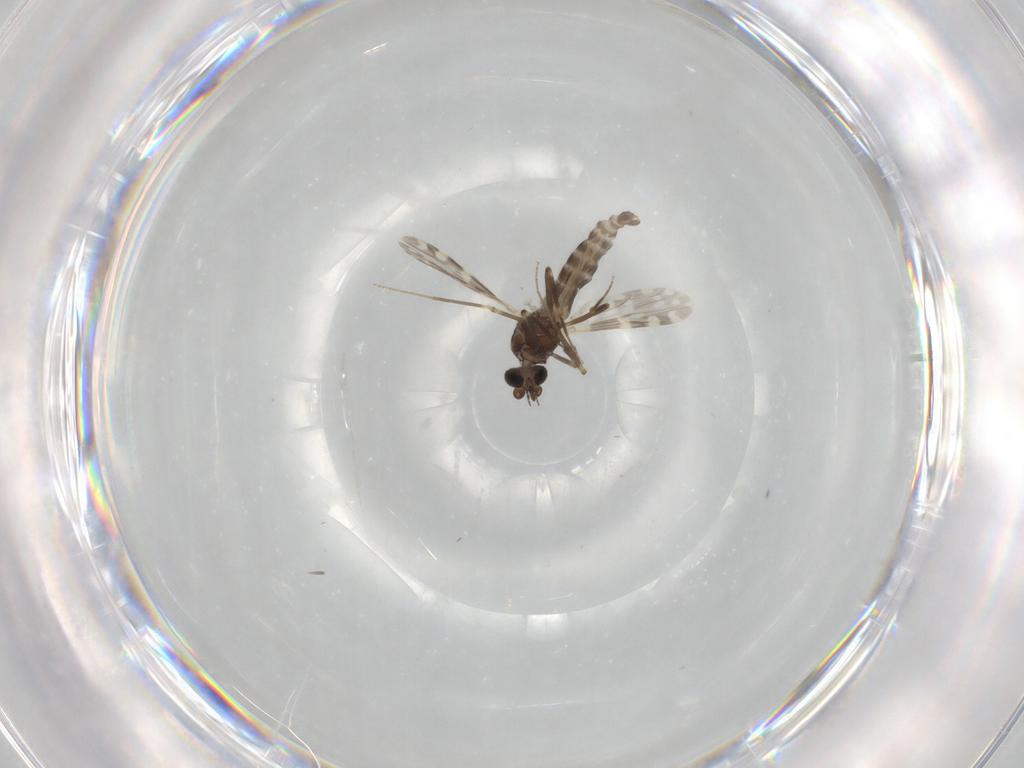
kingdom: Animalia
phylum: Arthropoda
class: Insecta
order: Diptera
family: Ceratopogonidae
